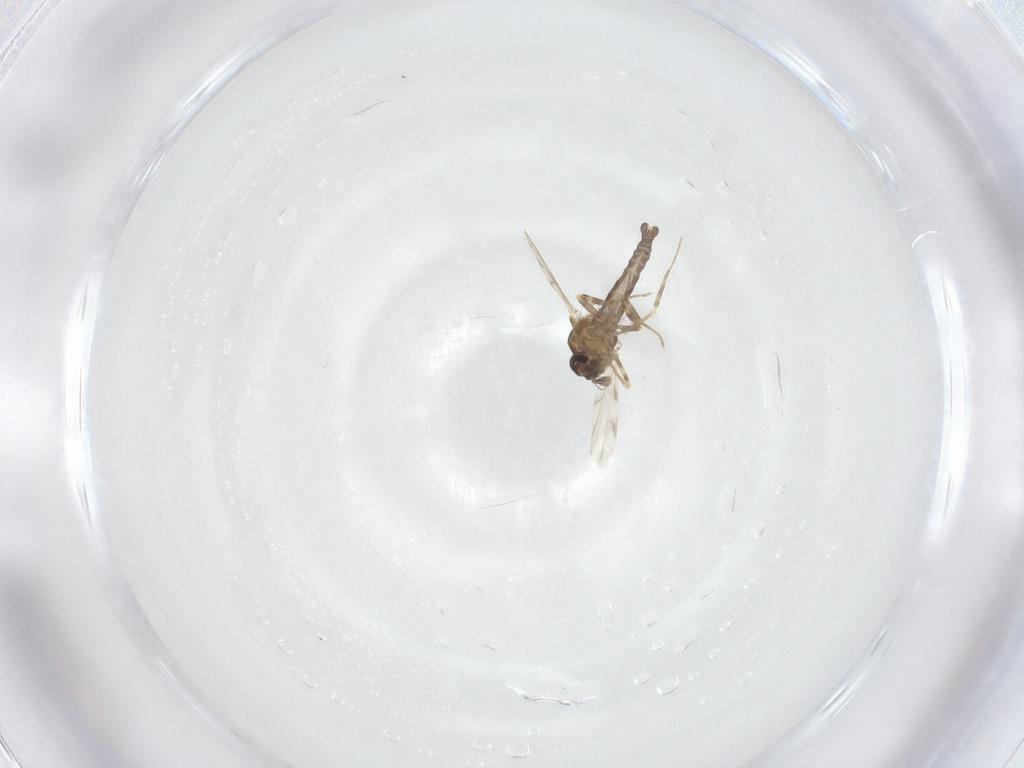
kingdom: Animalia
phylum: Arthropoda
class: Insecta
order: Diptera
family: Ceratopogonidae
